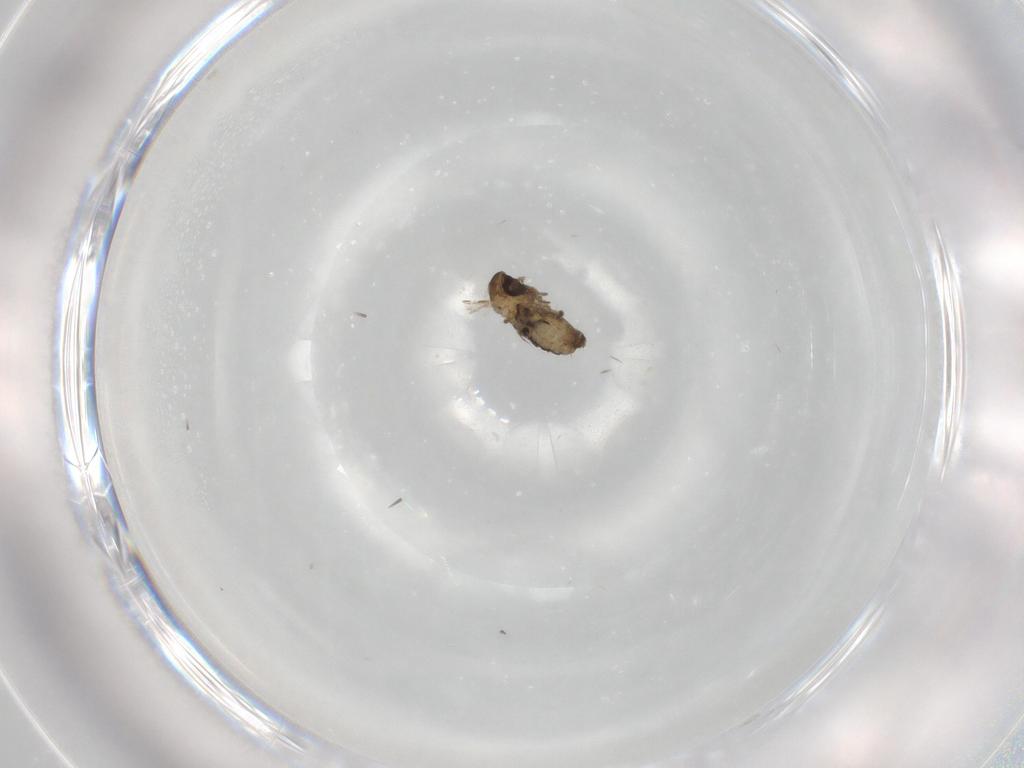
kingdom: Animalia
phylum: Arthropoda
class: Insecta
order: Diptera
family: Psychodidae
